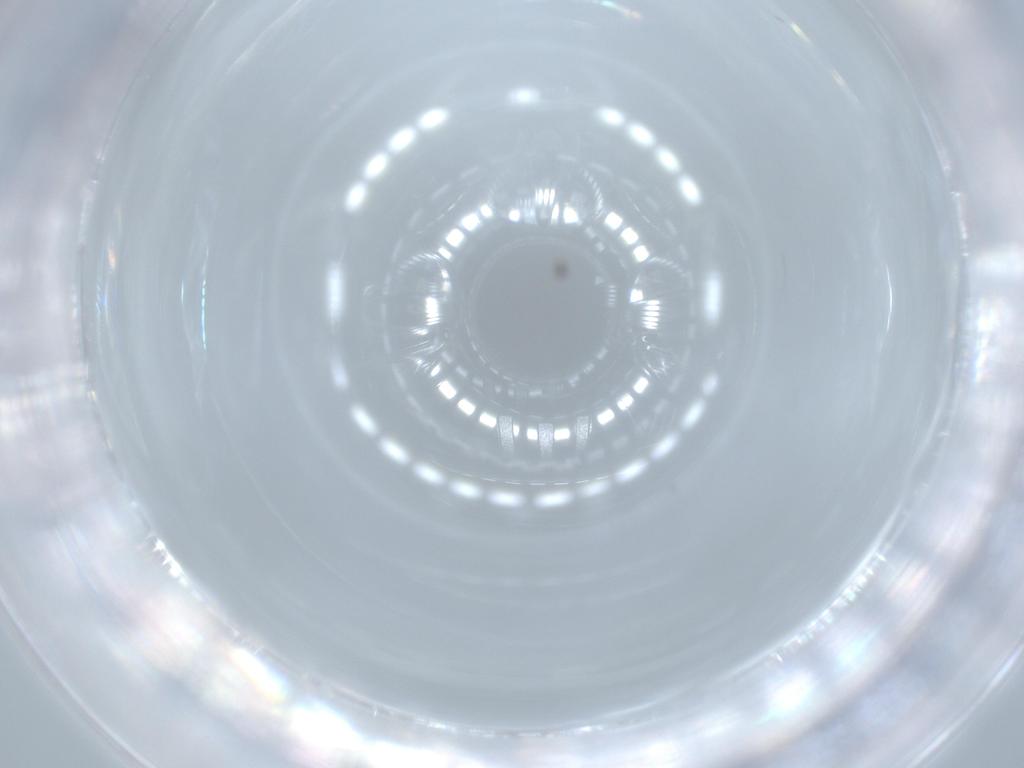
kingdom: Animalia
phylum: Arthropoda
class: Insecta
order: Diptera
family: Cecidomyiidae
